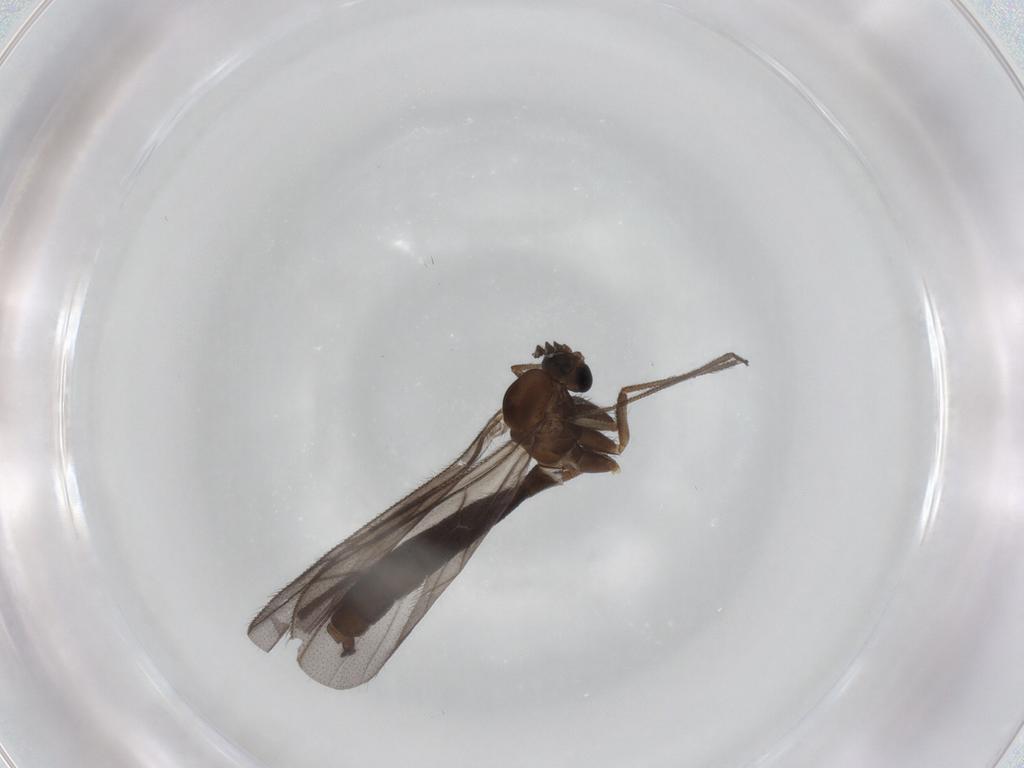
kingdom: Animalia
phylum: Arthropoda
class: Insecta
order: Diptera
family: Ditomyiidae
